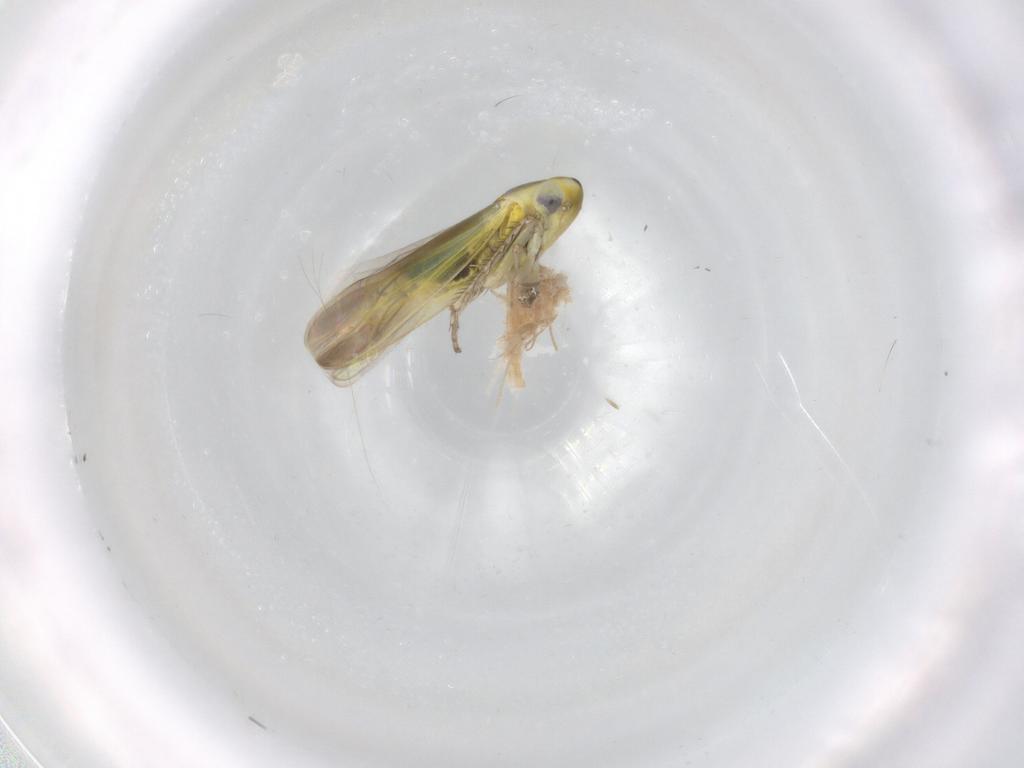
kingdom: Animalia
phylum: Arthropoda
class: Insecta
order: Hemiptera
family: Cicadellidae
